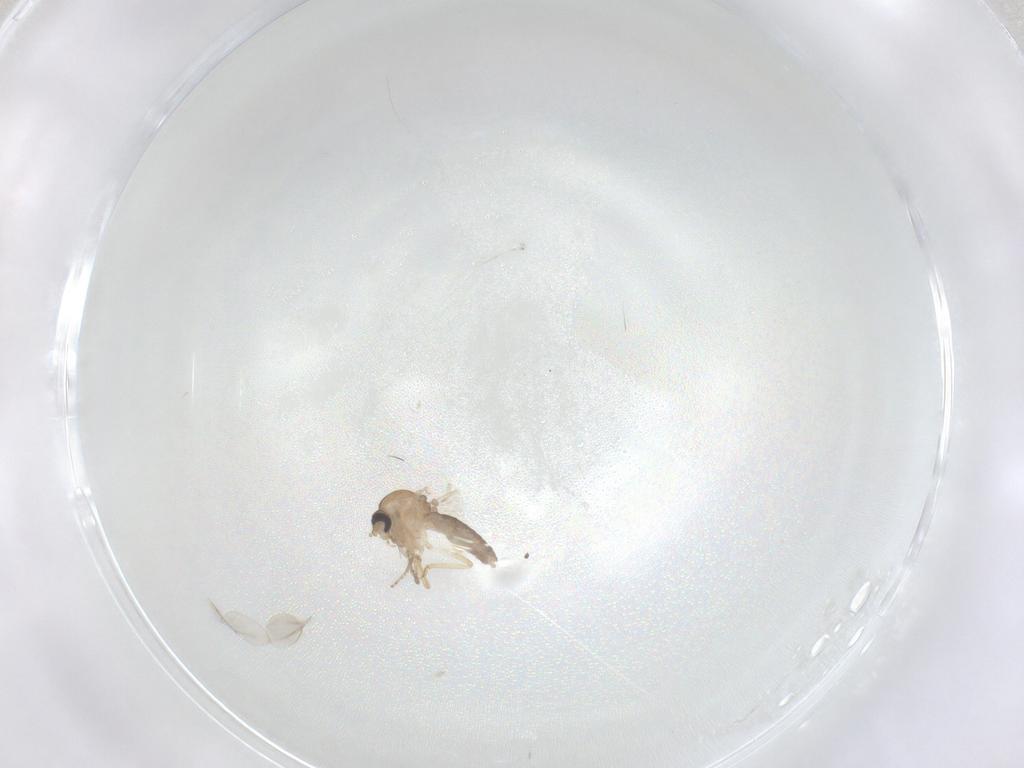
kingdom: Animalia
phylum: Arthropoda
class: Insecta
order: Diptera
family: Ceratopogonidae
